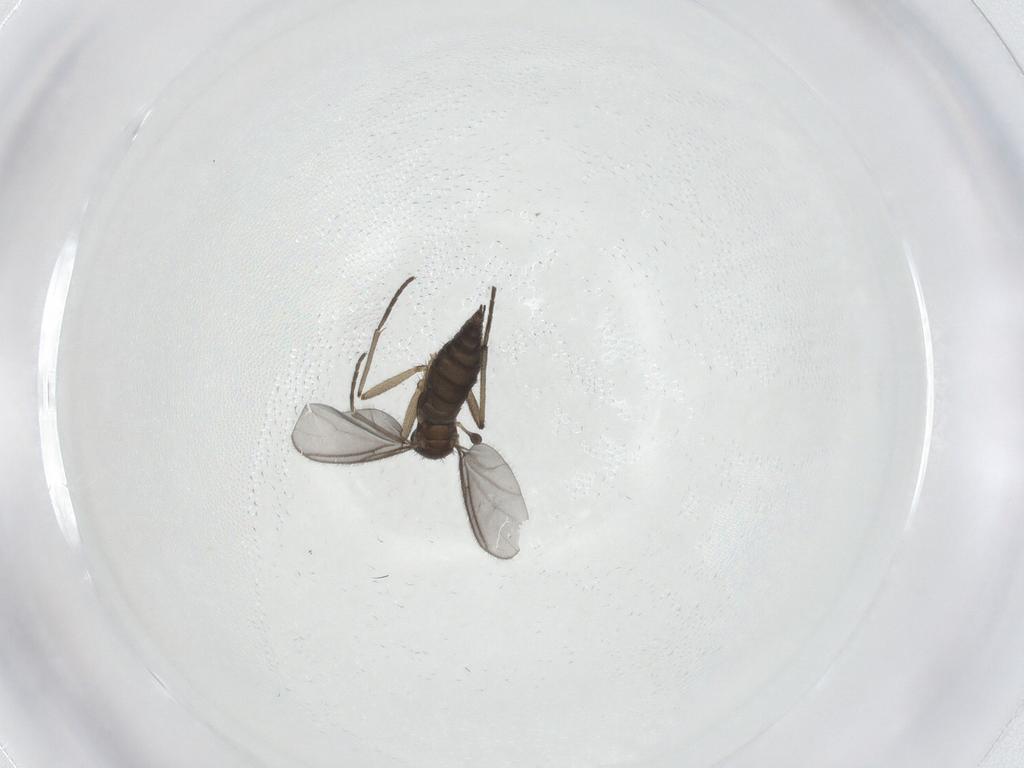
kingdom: Animalia
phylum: Arthropoda
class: Insecta
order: Diptera
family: Sciaridae
